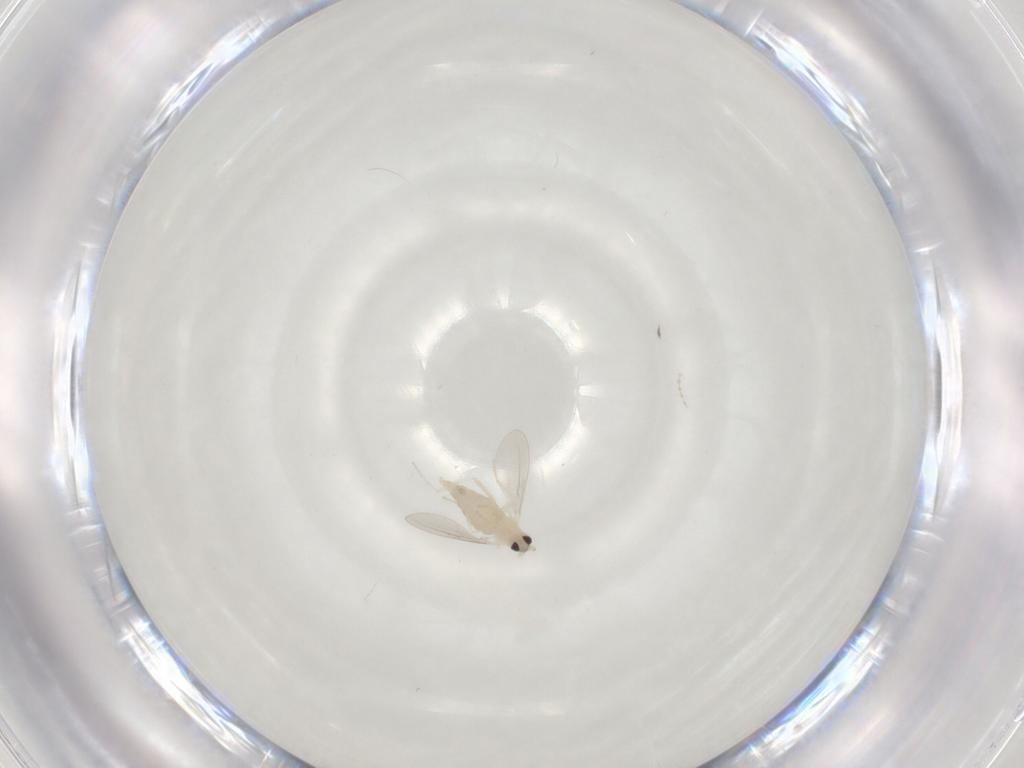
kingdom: Animalia
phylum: Arthropoda
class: Insecta
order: Diptera
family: Cecidomyiidae
